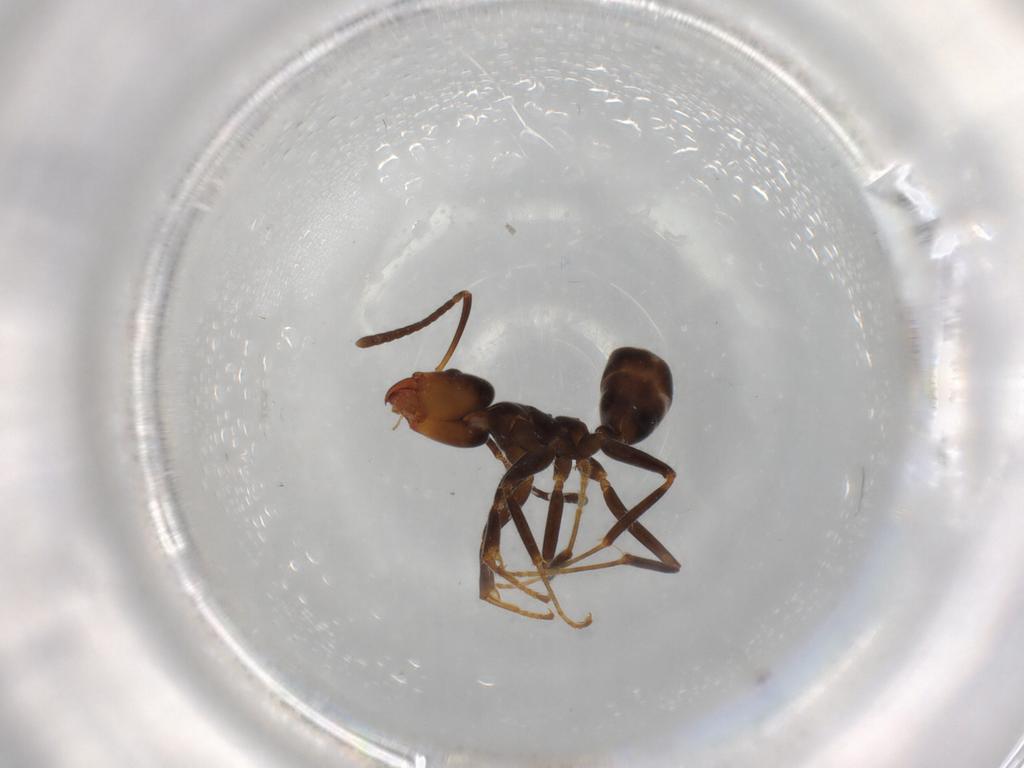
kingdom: Animalia
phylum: Arthropoda
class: Insecta
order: Hymenoptera
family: Formicidae
